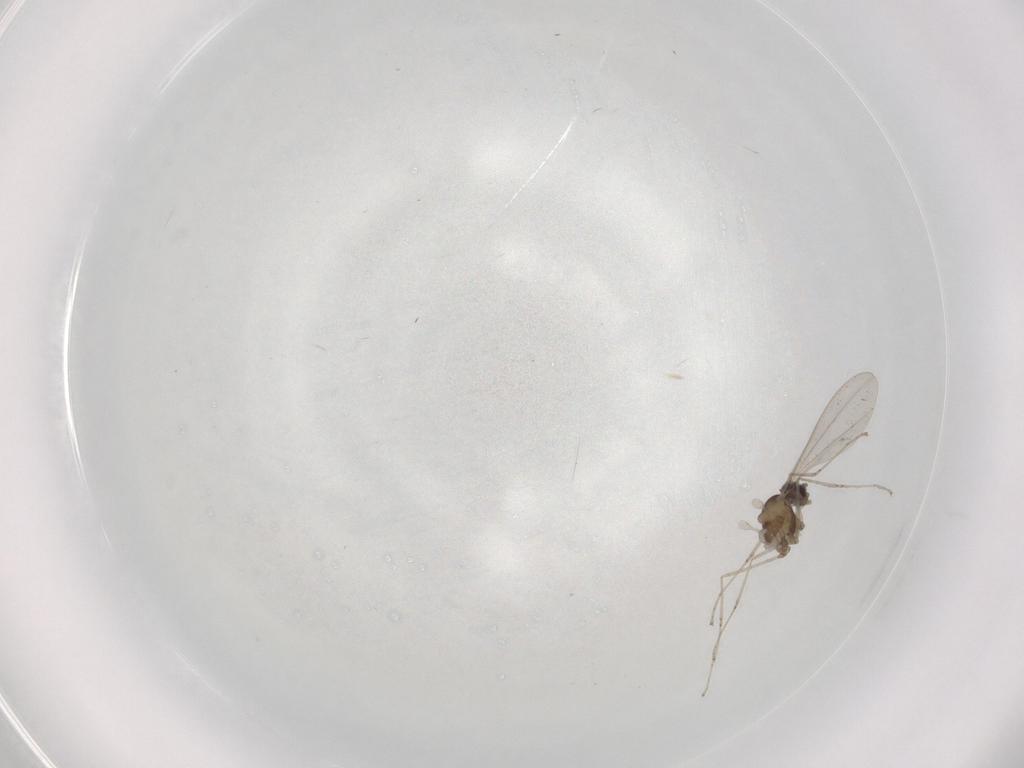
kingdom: Animalia
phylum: Arthropoda
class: Insecta
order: Diptera
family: Cecidomyiidae
